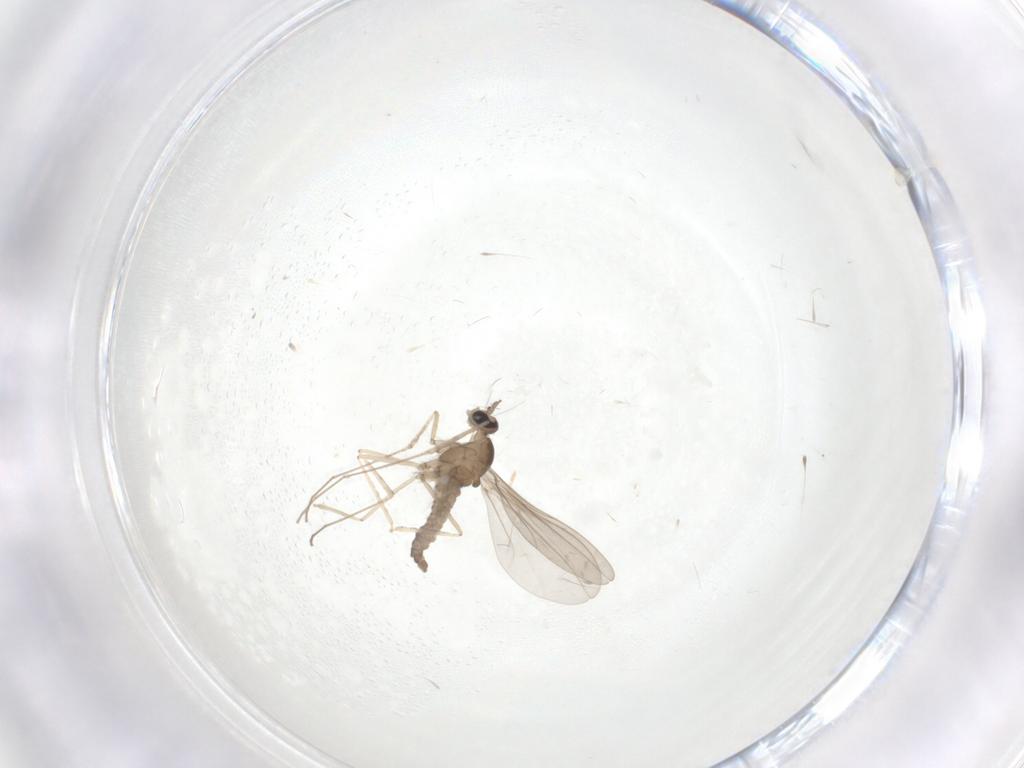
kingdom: Animalia
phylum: Arthropoda
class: Insecta
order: Diptera
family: Cecidomyiidae
